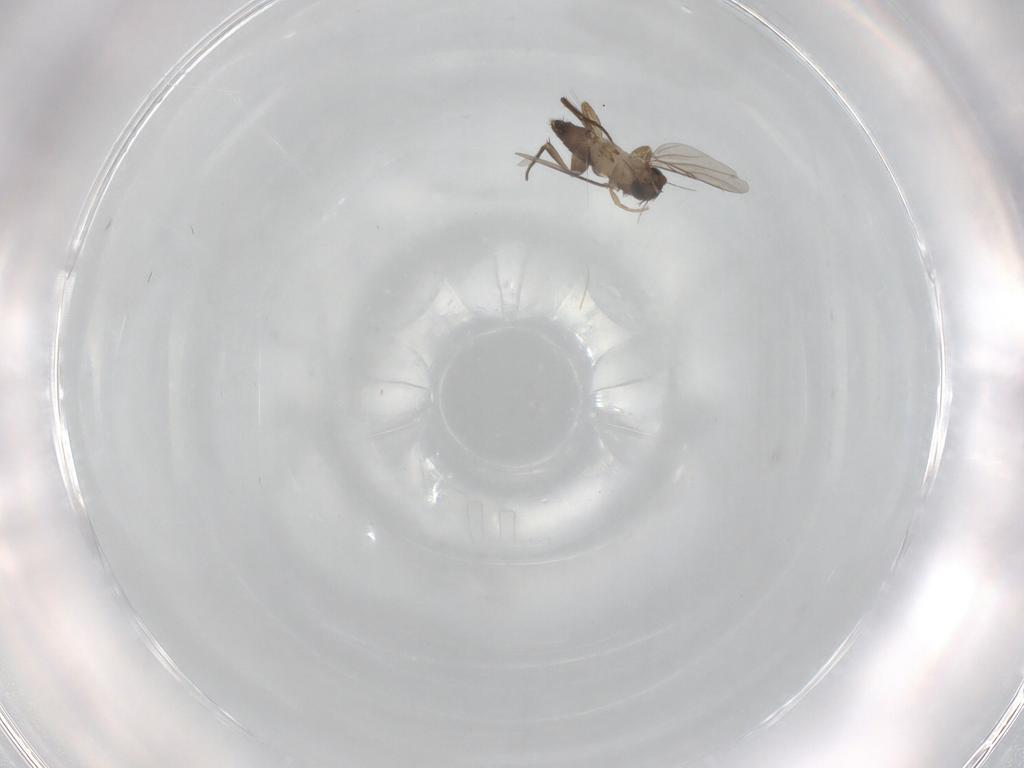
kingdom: Animalia
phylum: Arthropoda
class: Insecta
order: Diptera
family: Phoridae
